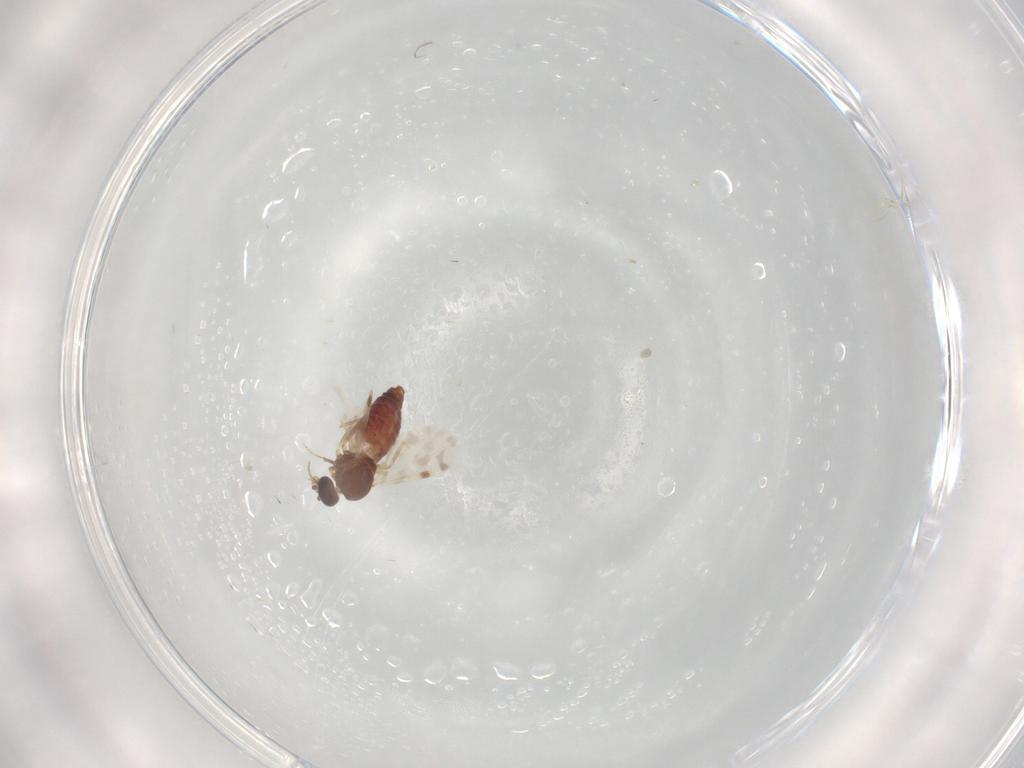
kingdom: Animalia
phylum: Arthropoda
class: Insecta
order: Diptera
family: Ceratopogonidae
